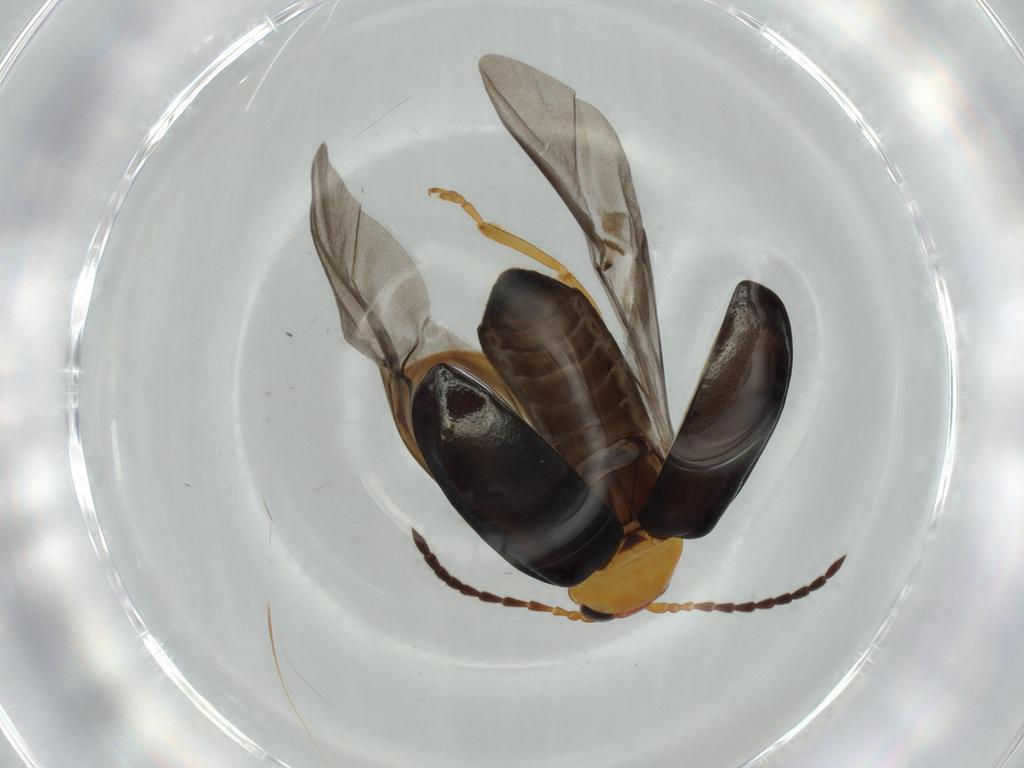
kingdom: Animalia
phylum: Arthropoda
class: Insecta
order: Coleoptera
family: Chrysomelidae
